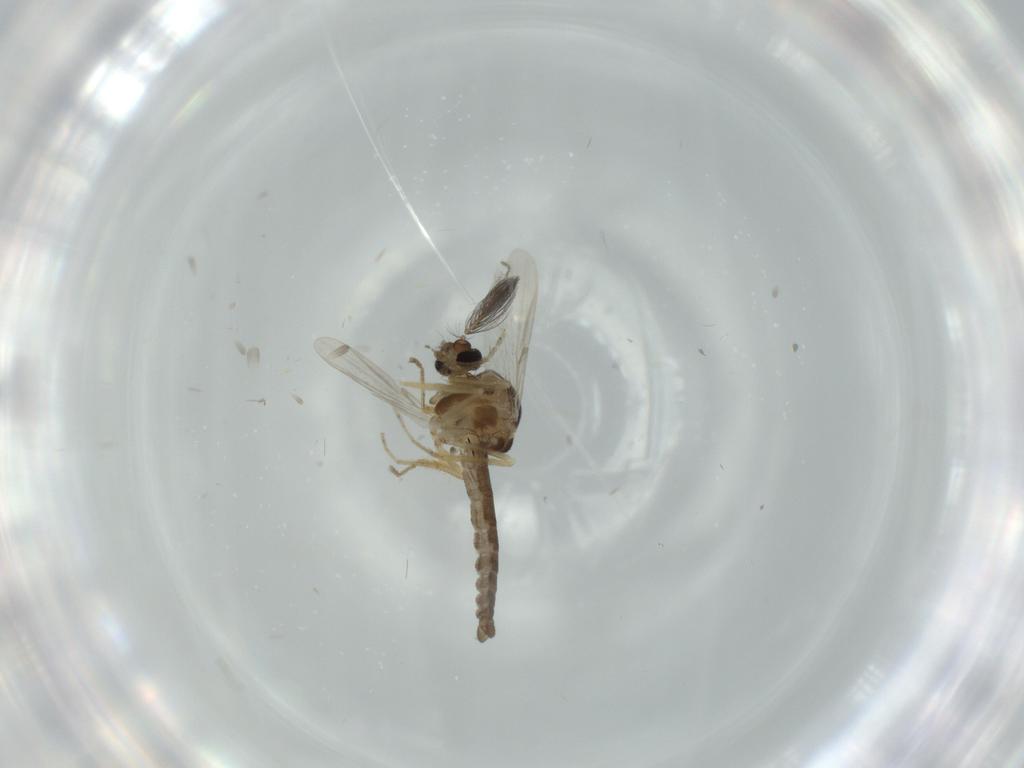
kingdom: Animalia
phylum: Arthropoda
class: Insecta
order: Diptera
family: Ceratopogonidae
